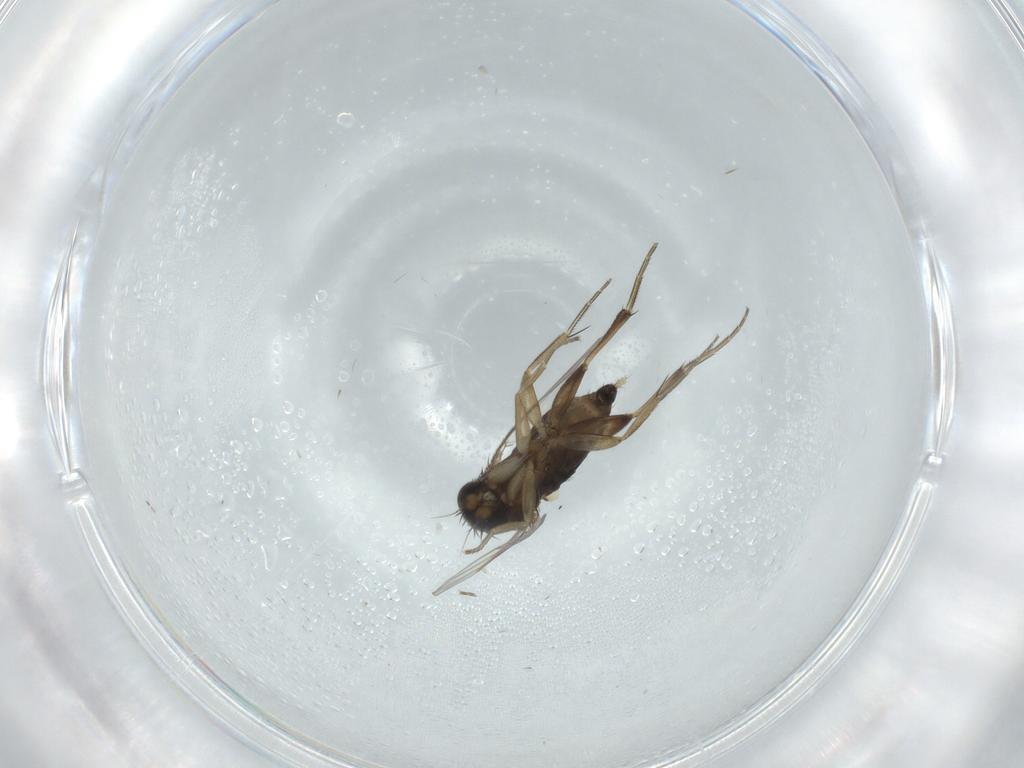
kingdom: Animalia
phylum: Arthropoda
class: Insecta
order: Diptera
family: Phoridae
